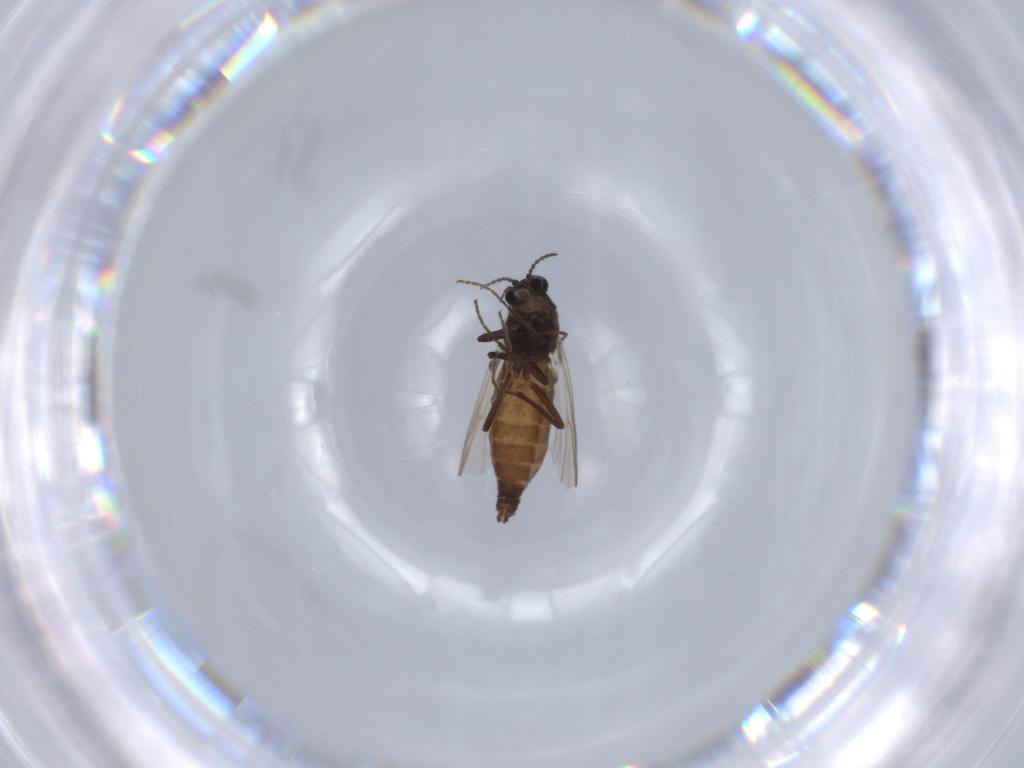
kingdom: Animalia
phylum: Arthropoda
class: Insecta
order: Diptera
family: Chironomidae
